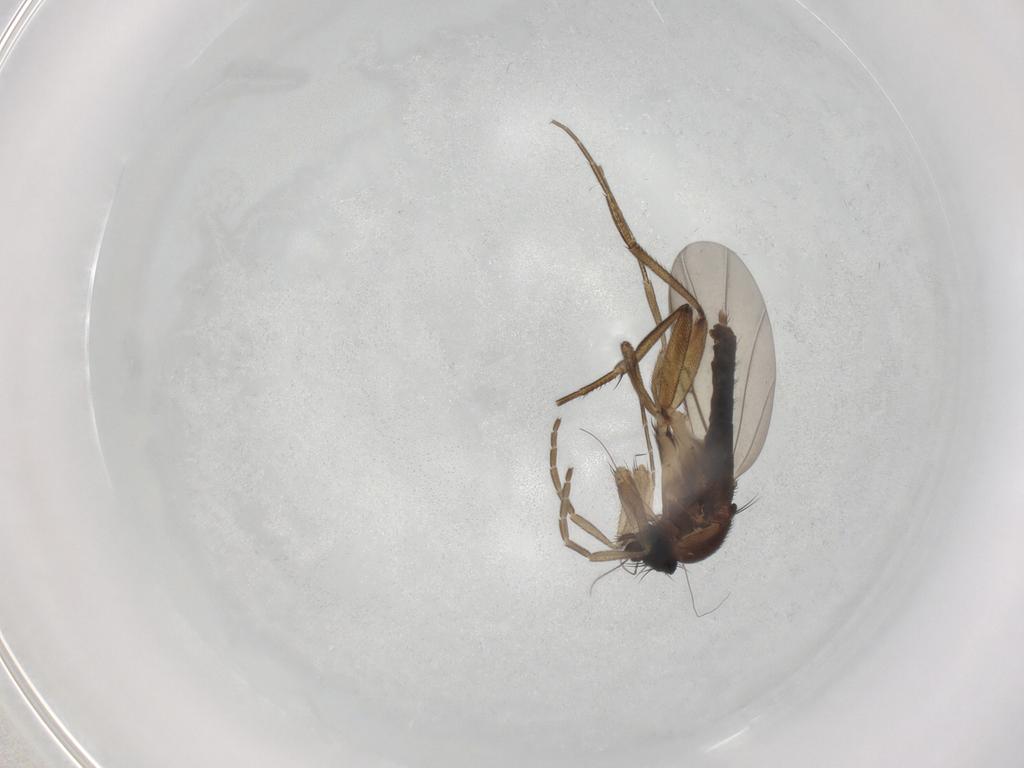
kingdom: Animalia
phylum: Arthropoda
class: Insecta
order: Diptera
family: Phoridae
